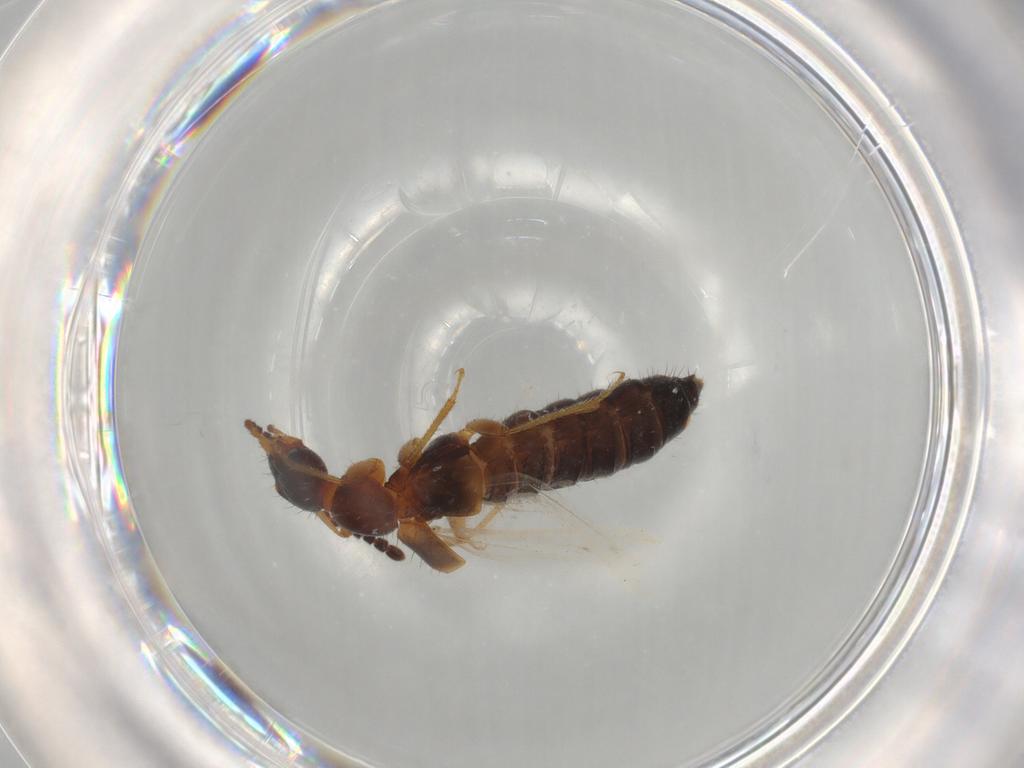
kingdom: Animalia
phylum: Arthropoda
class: Insecta
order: Coleoptera
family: Staphylinidae
